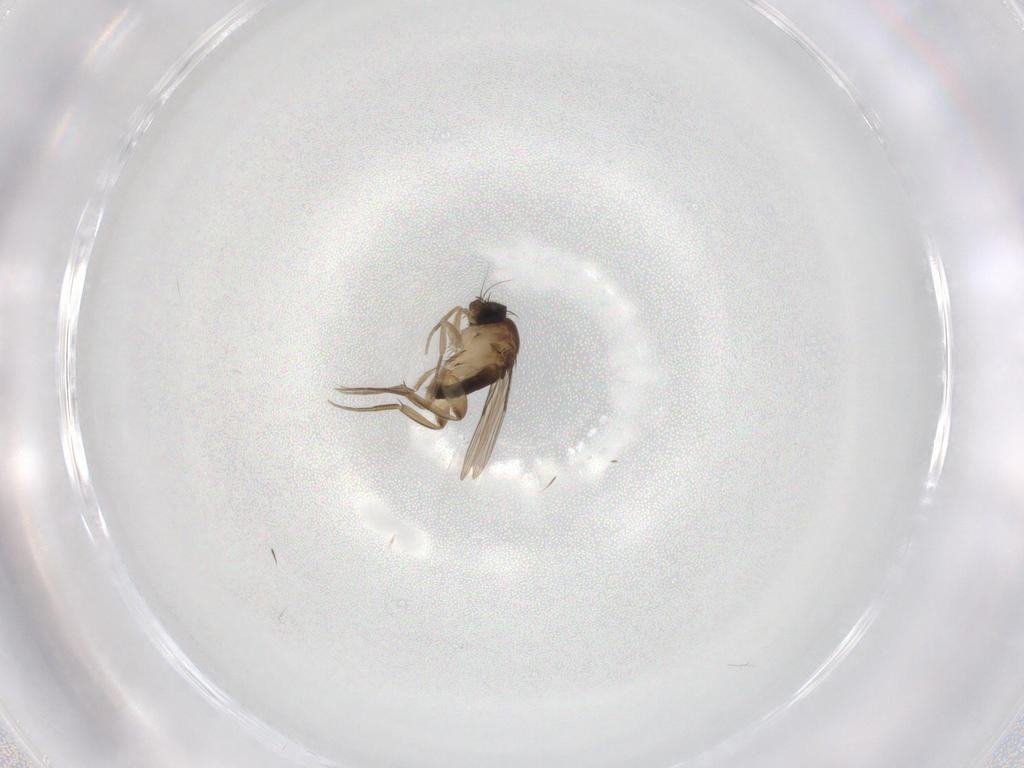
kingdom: Animalia
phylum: Arthropoda
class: Insecta
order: Diptera
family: Phoridae
